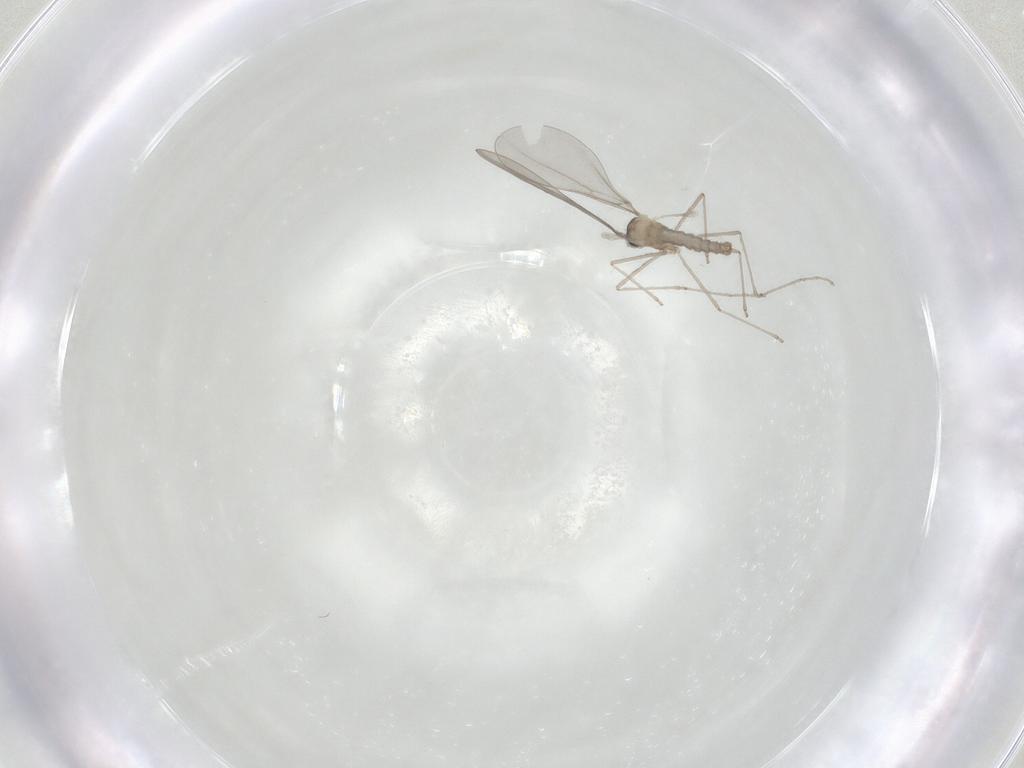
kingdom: Animalia
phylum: Arthropoda
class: Insecta
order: Diptera
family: Cecidomyiidae
